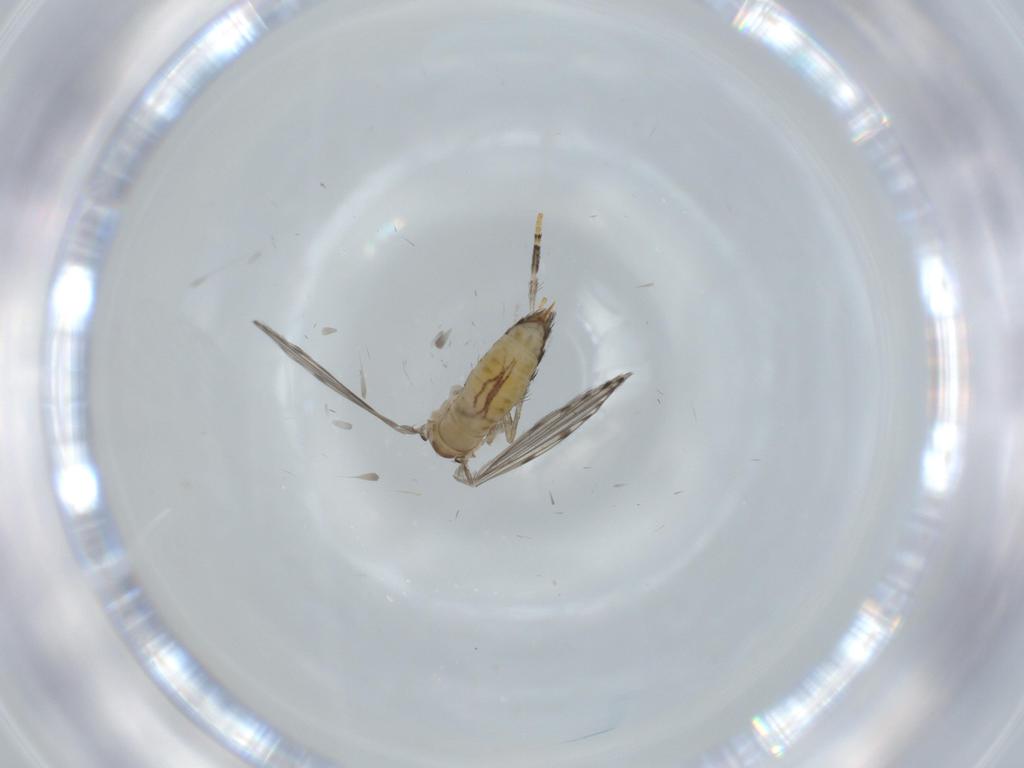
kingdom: Animalia
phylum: Arthropoda
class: Insecta
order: Diptera
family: Psychodidae
